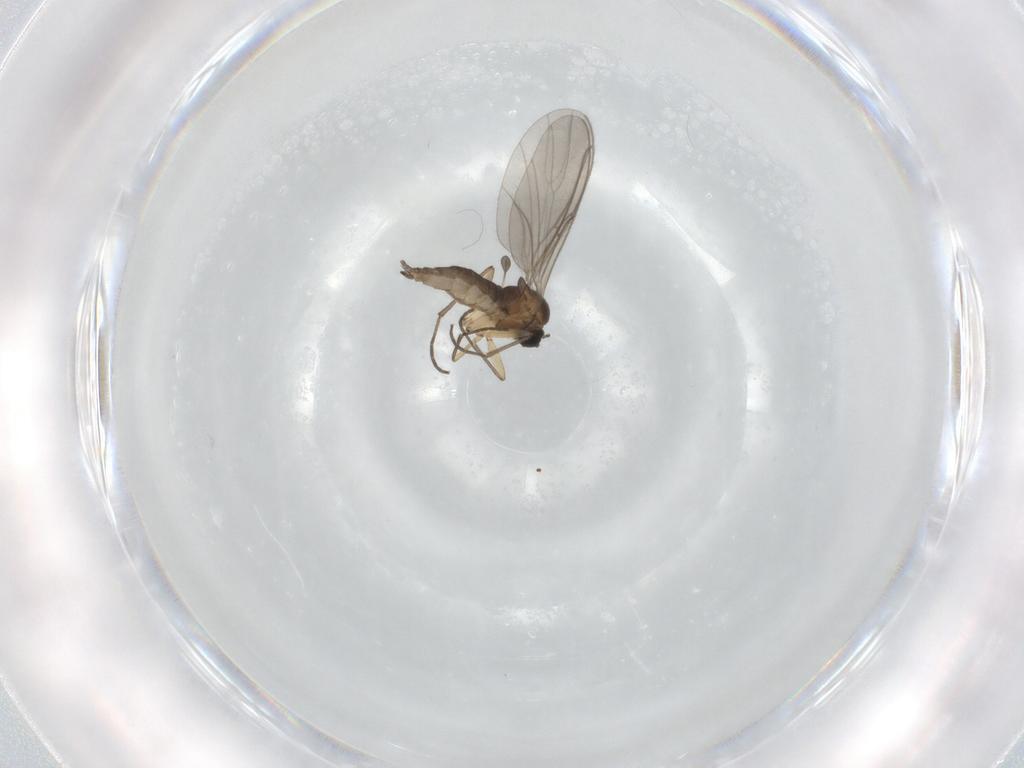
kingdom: Animalia
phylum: Arthropoda
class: Insecta
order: Diptera
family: Sciaridae
